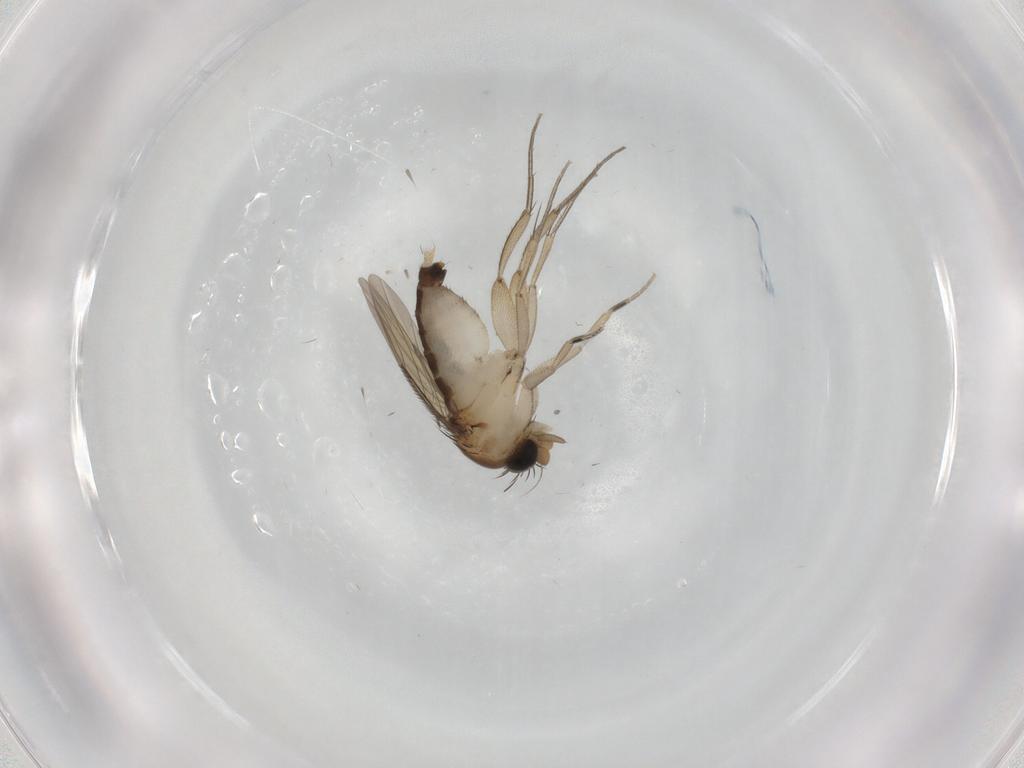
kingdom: Animalia
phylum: Arthropoda
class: Insecta
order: Diptera
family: Phoridae
